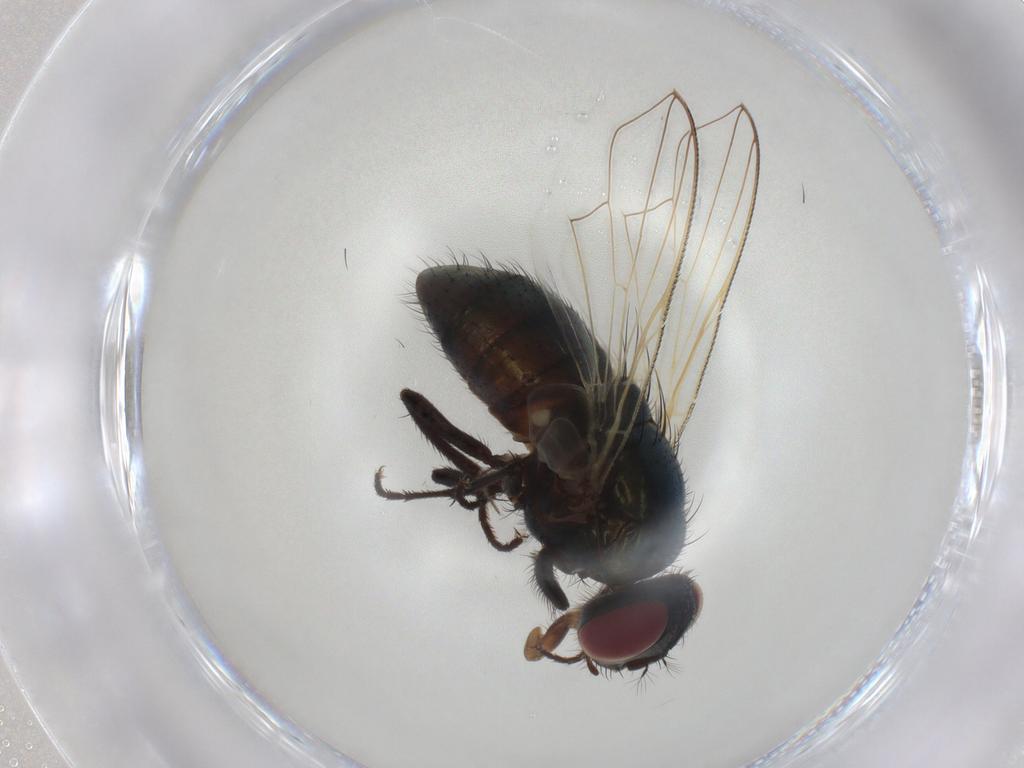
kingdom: Animalia
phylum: Arthropoda
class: Insecta
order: Diptera
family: Muscidae
